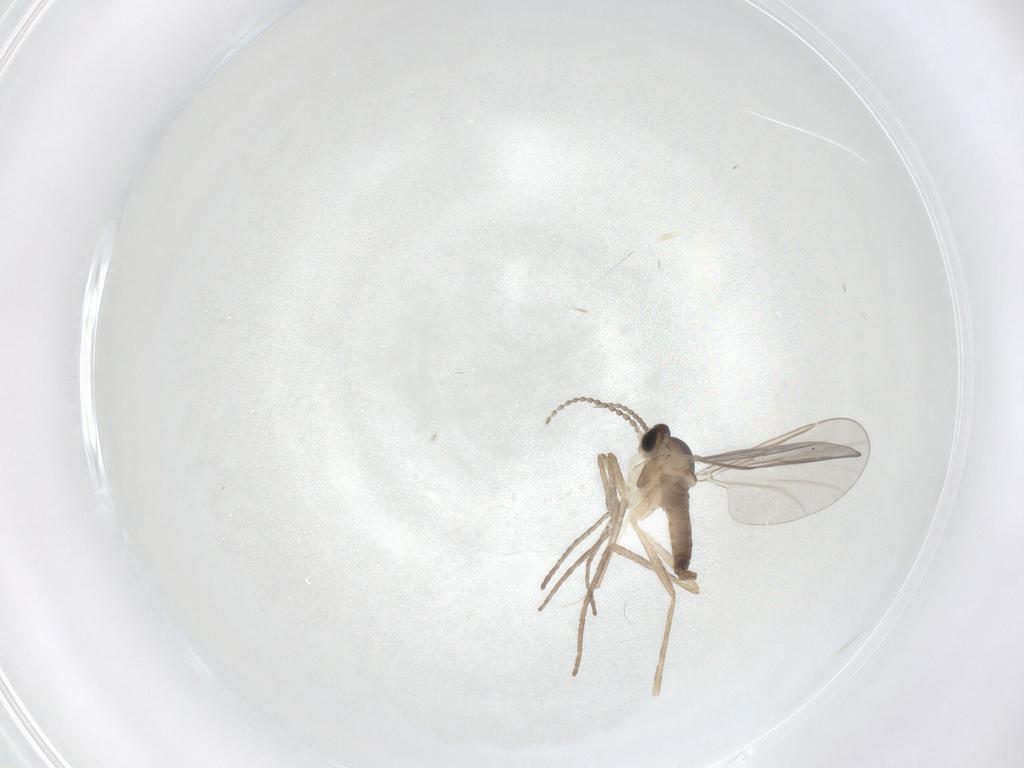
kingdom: Animalia
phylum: Arthropoda
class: Insecta
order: Diptera
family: Cecidomyiidae
